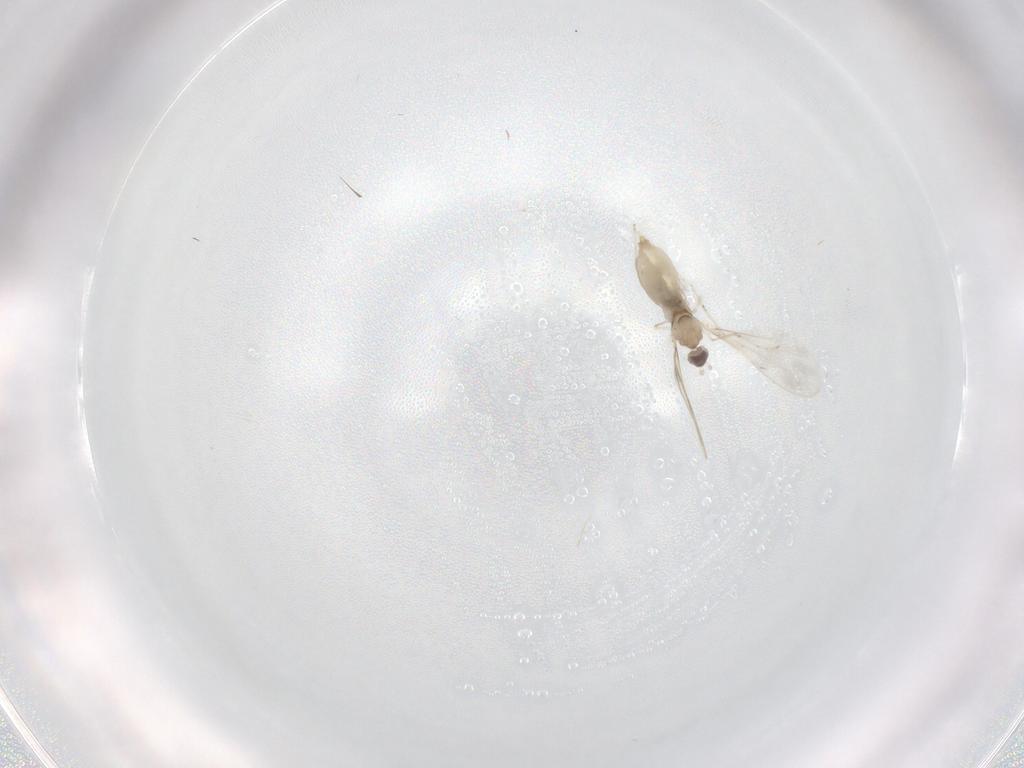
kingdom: Animalia
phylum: Arthropoda
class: Insecta
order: Diptera
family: Cecidomyiidae
